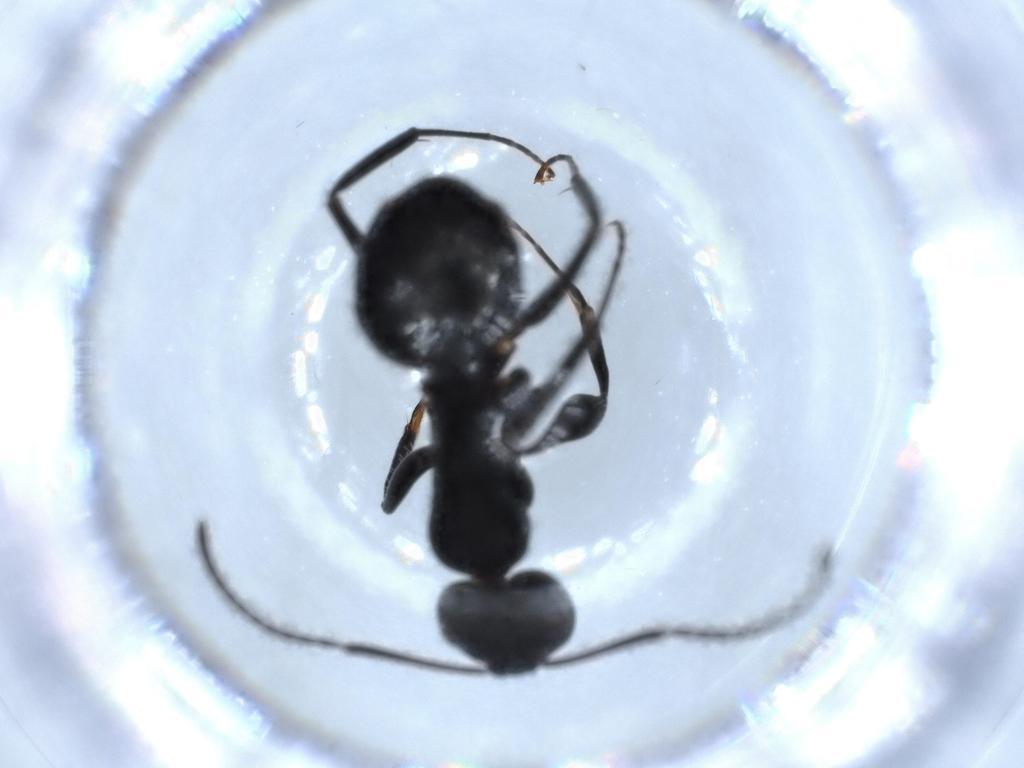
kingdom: Animalia
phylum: Arthropoda
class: Insecta
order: Hymenoptera
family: Formicidae
